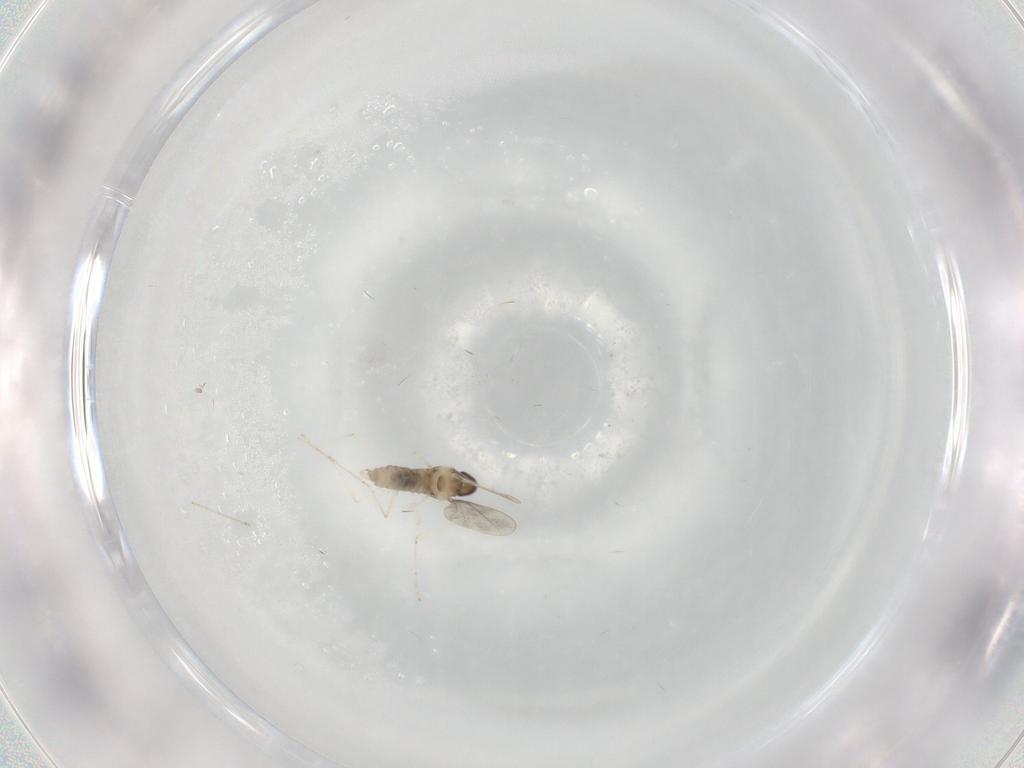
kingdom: Animalia
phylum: Arthropoda
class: Insecta
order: Diptera
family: Cecidomyiidae
